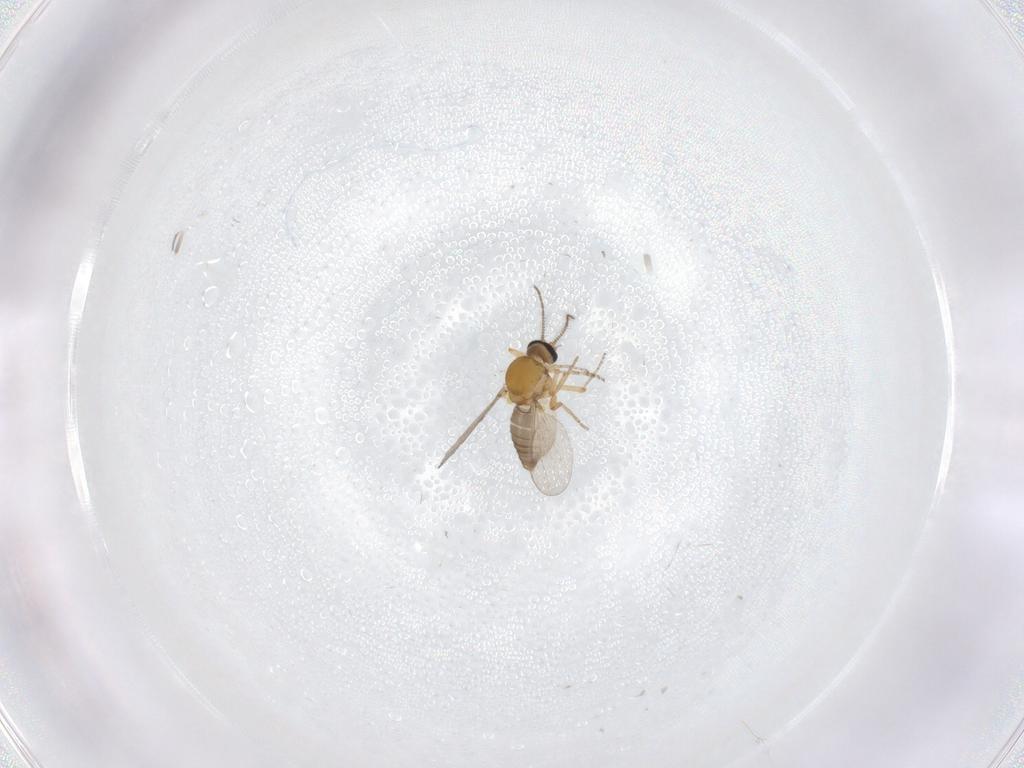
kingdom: Animalia
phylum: Arthropoda
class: Insecta
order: Diptera
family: Ceratopogonidae
